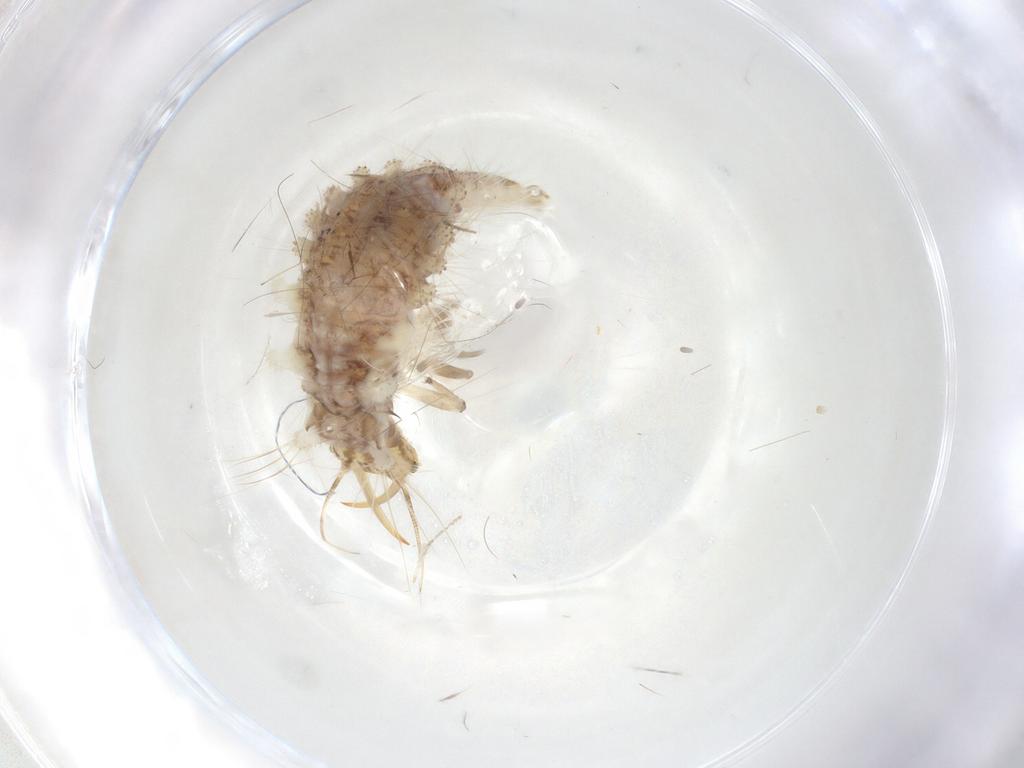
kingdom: Animalia
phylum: Arthropoda
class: Insecta
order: Neuroptera
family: Chrysopidae
